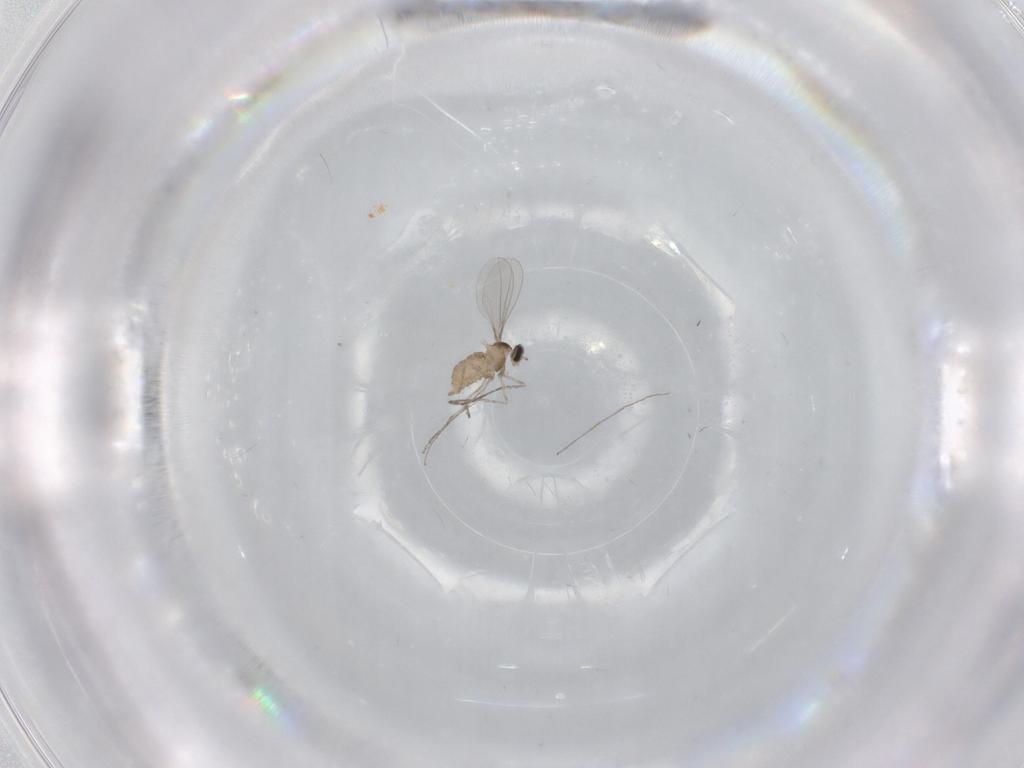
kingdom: Animalia
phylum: Arthropoda
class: Insecta
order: Diptera
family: Cecidomyiidae
